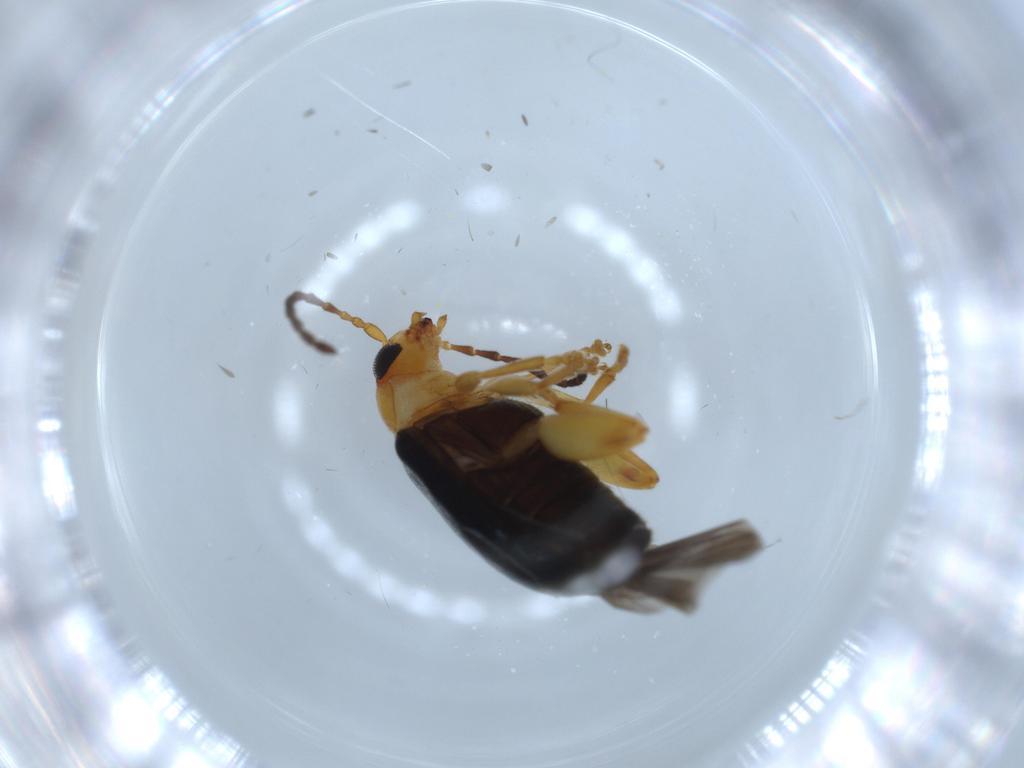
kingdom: Animalia
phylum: Arthropoda
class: Insecta
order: Coleoptera
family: Chrysomelidae
